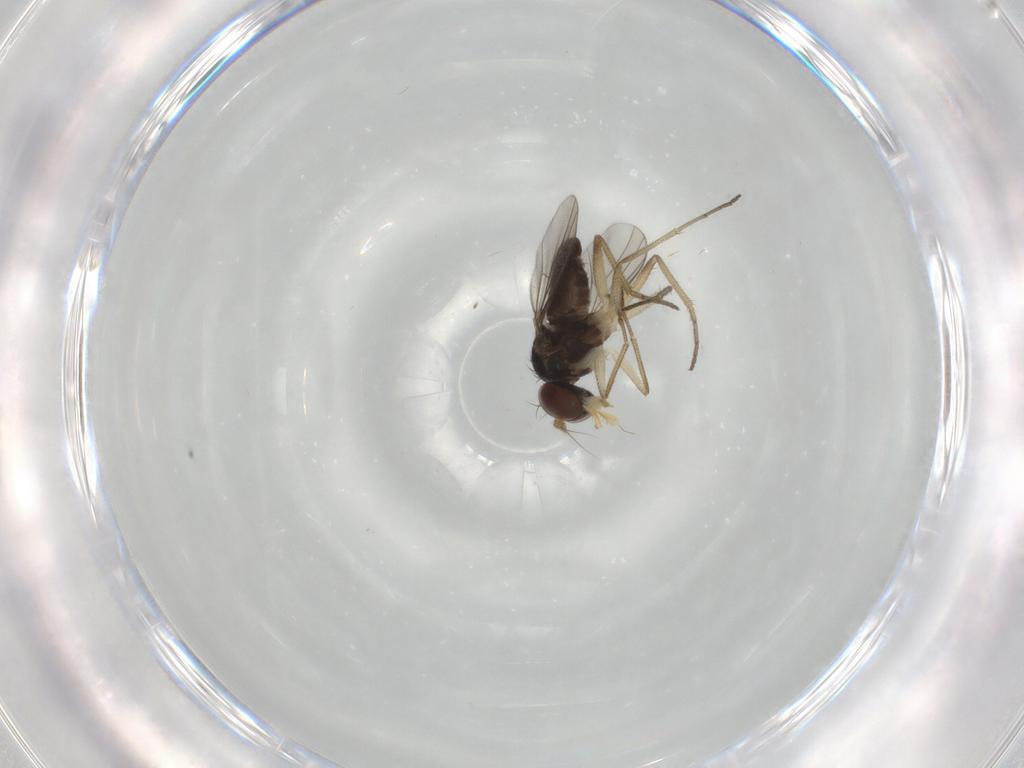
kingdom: Animalia
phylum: Arthropoda
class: Insecta
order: Diptera
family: Dolichopodidae
